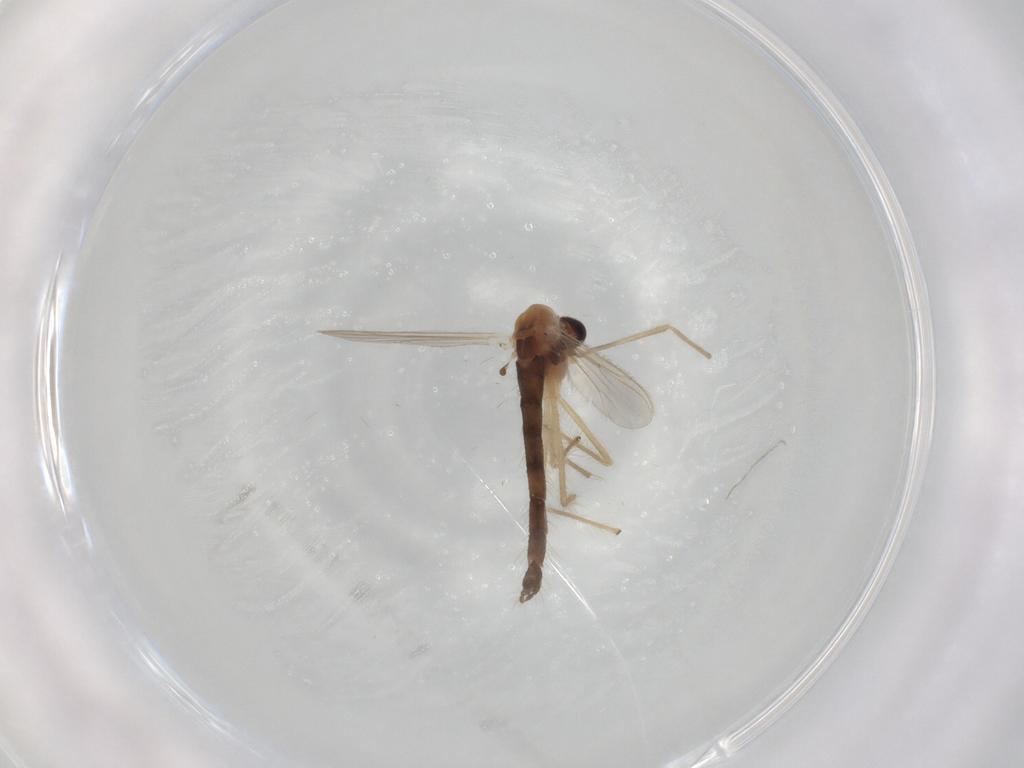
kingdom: Animalia
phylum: Arthropoda
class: Insecta
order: Diptera
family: Chironomidae
